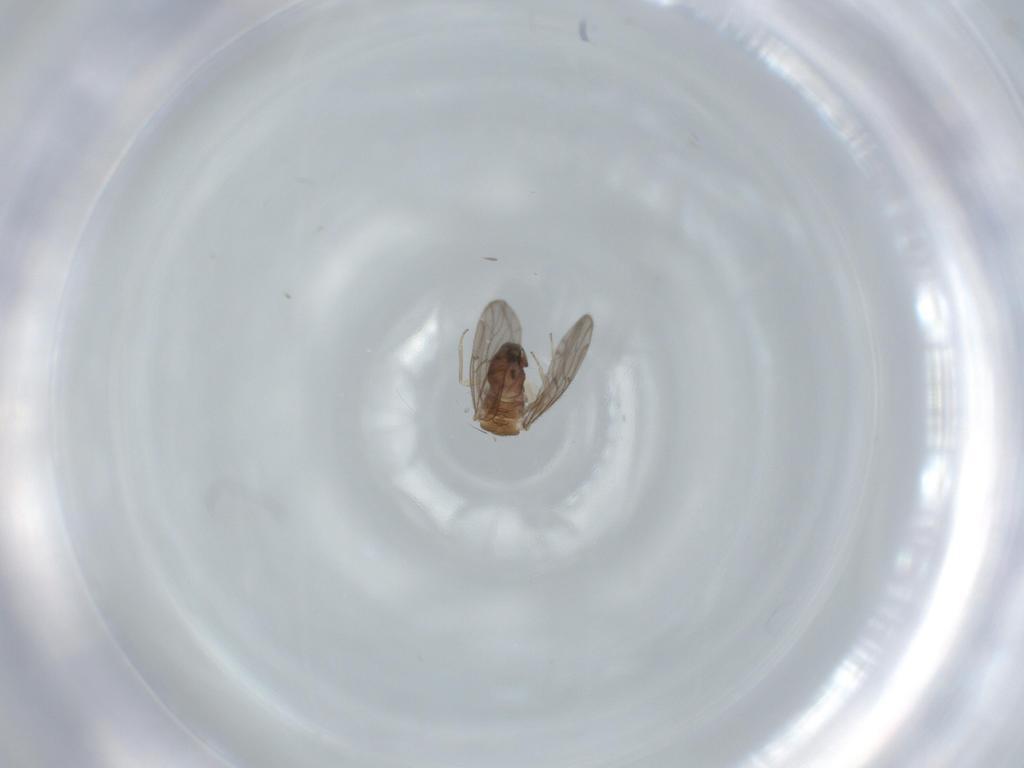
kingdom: Animalia
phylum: Arthropoda
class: Insecta
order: Psocodea
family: Ectopsocidae
